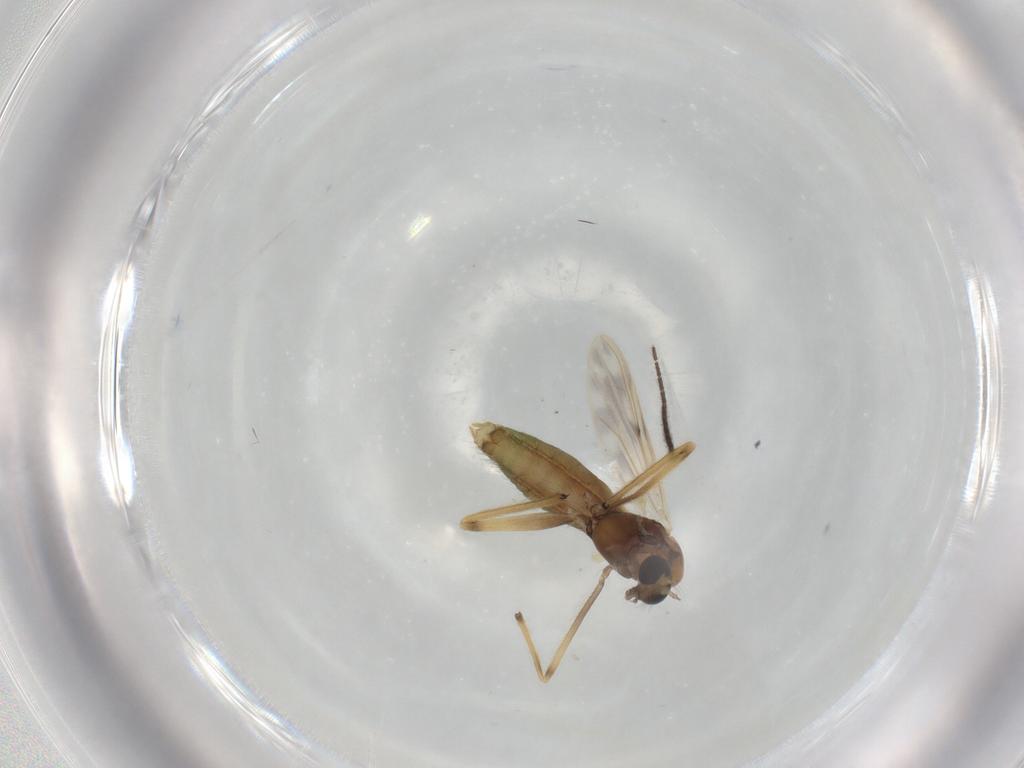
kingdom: Animalia
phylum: Arthropoda
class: Insecta
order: Diptera
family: Chironomidae
